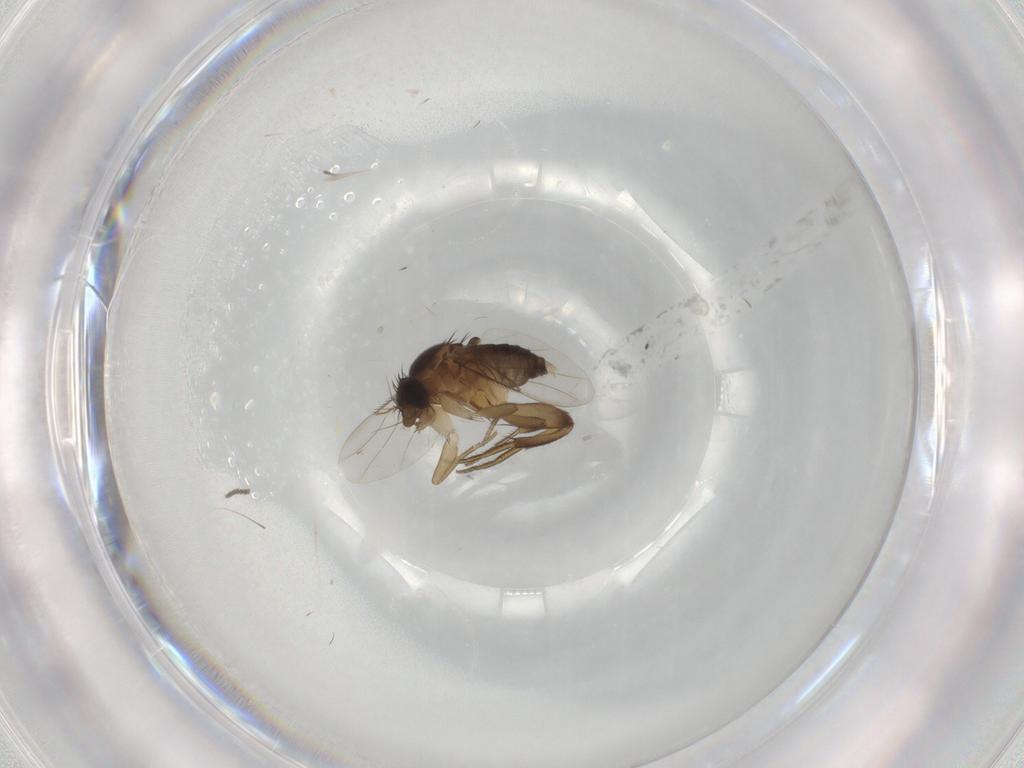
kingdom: Animalia
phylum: Arthropoda
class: Insecta
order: Diptera
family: Phoridae
